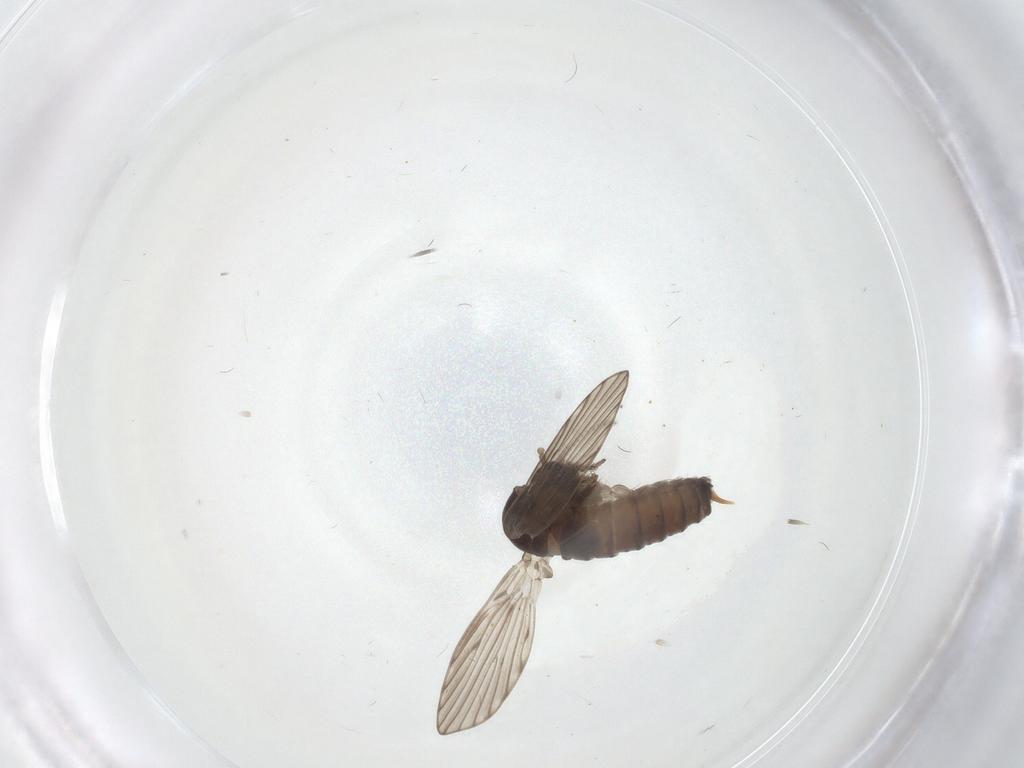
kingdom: Animalia
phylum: Arthropoda
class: Insecta
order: Diptera
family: Psychodidae
